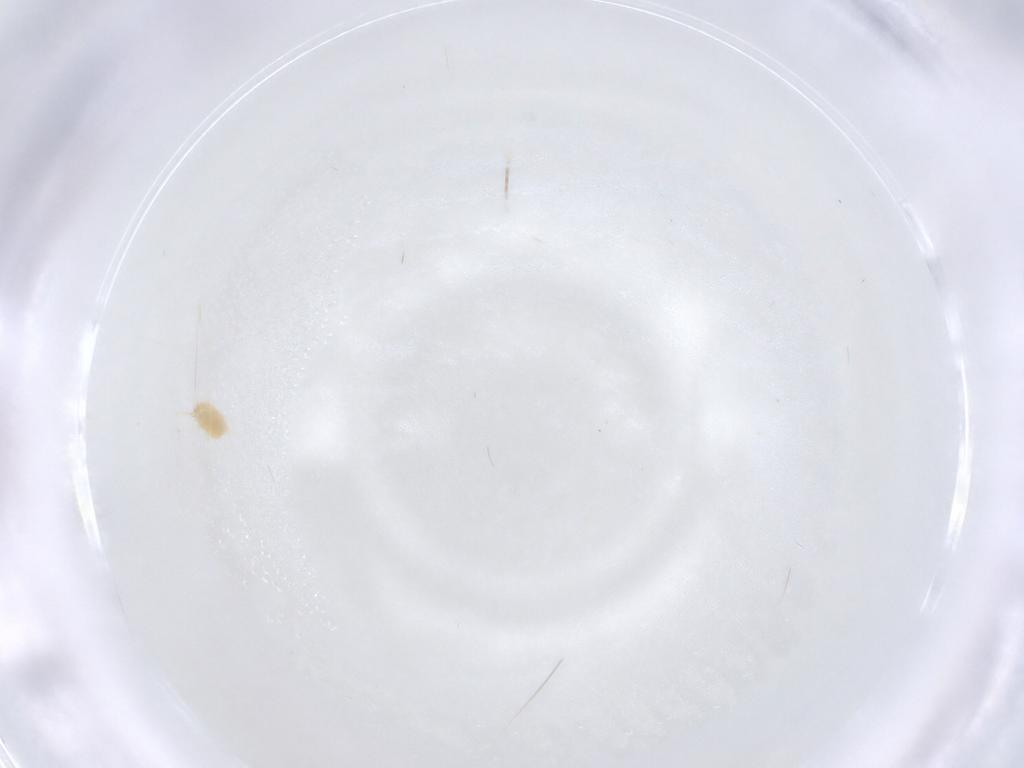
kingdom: Animalia
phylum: Arthropoda
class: Arachnida
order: Trombidiformes
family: Tetranychidae
